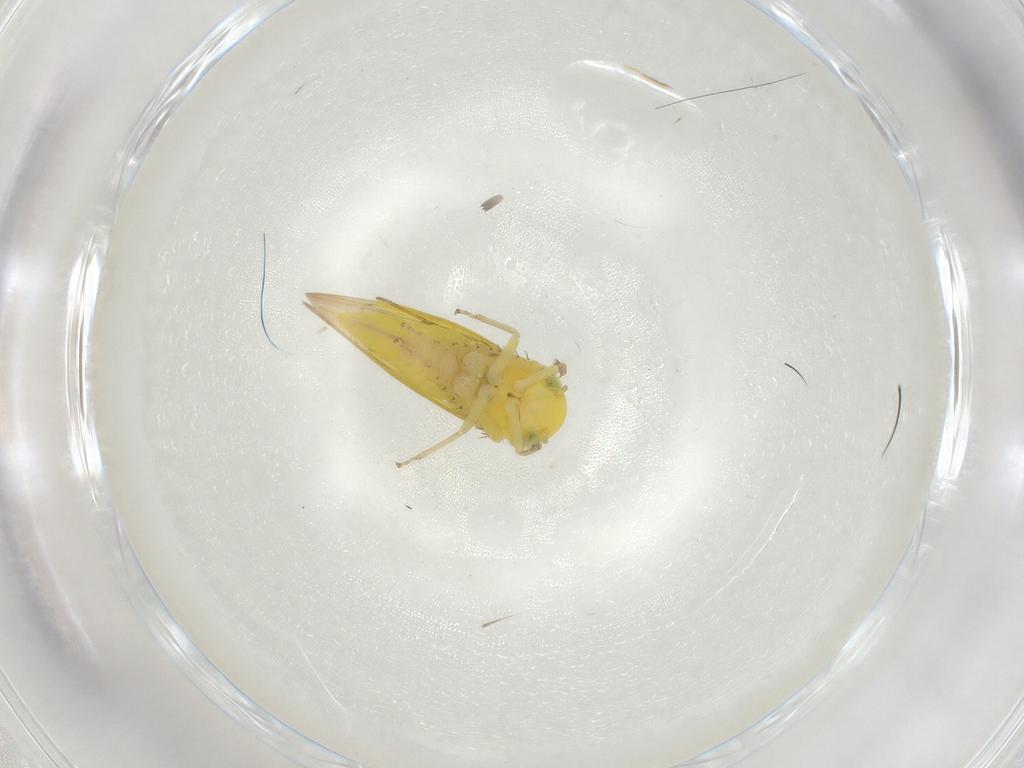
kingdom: Animalia
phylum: Arthropoda
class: Insecta
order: Hemiptera
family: Cicadellidae
